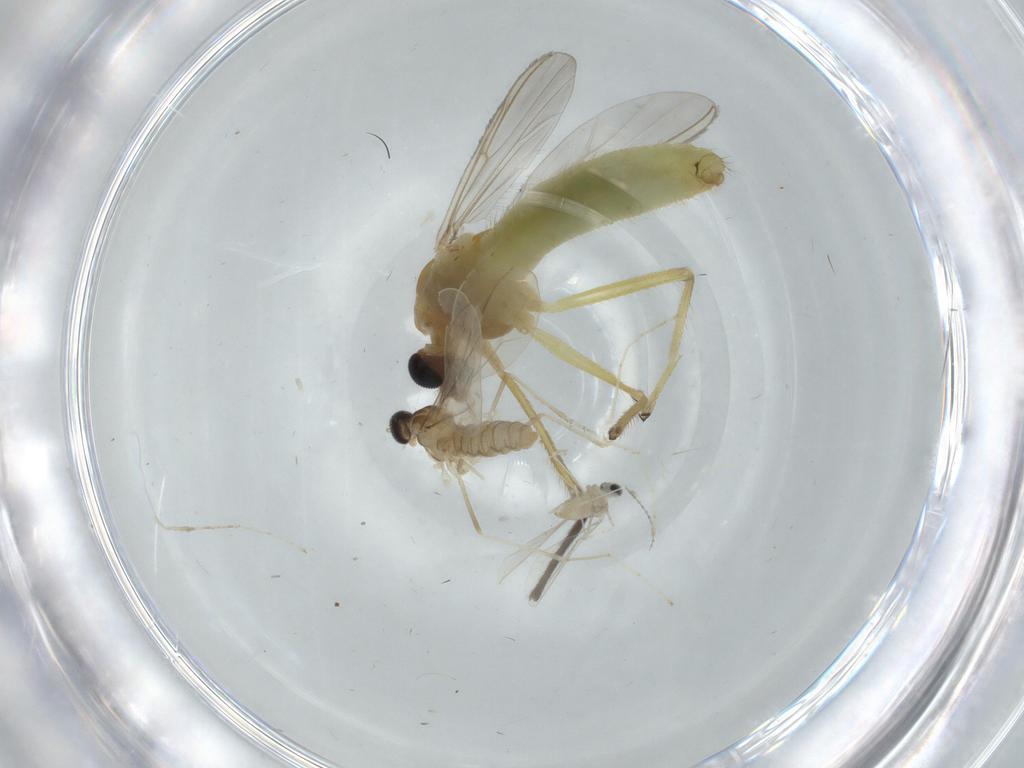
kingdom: Animalia
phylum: Arthropoda
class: Insecta
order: Diptera
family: Chironomidae
